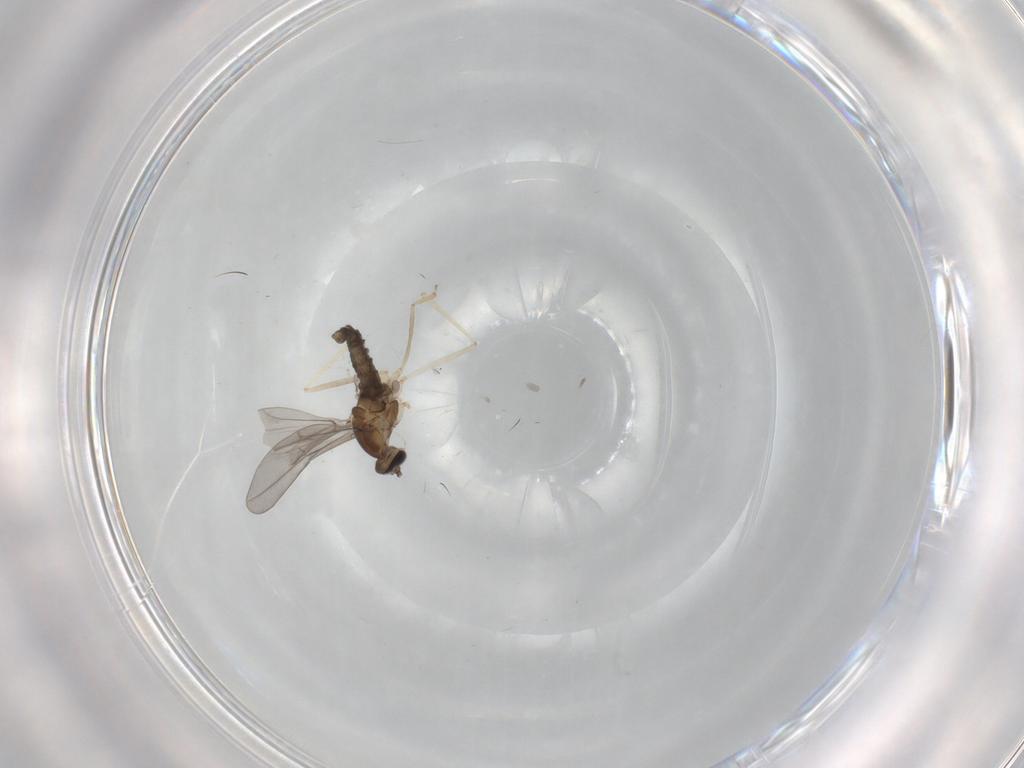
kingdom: Animalia
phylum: Arthropoda
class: Insecta
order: Diptera
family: Cecidomyiidae
